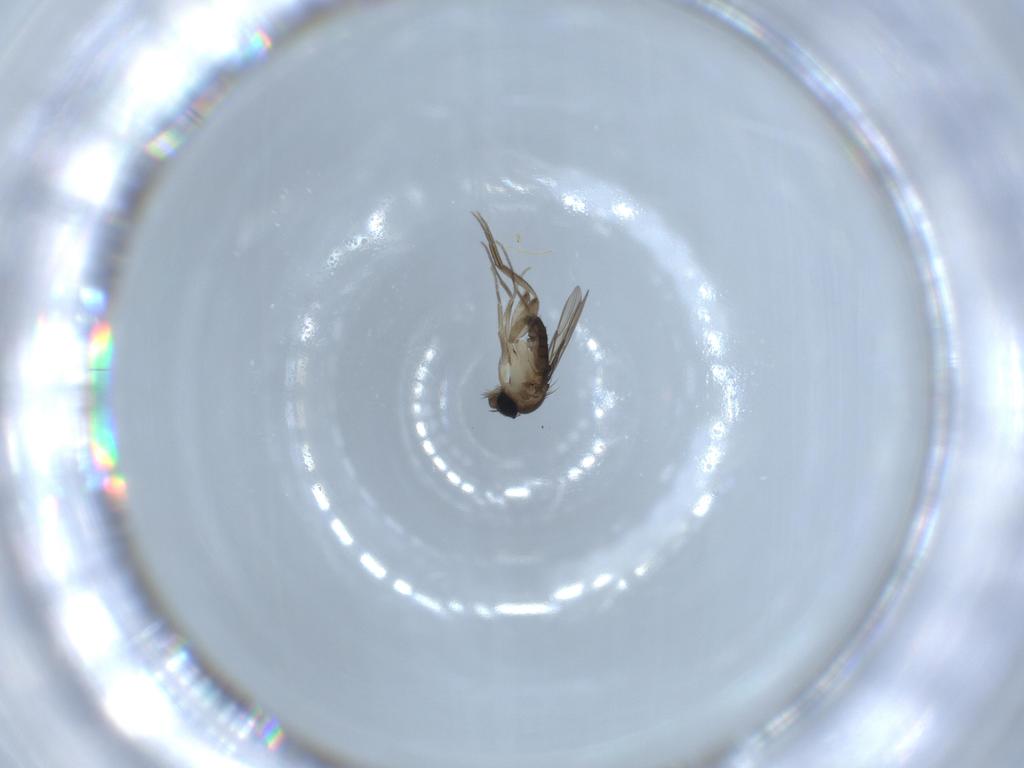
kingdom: Animalia
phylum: Arthropoda
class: Insecta
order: Diptera
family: Phoridae
